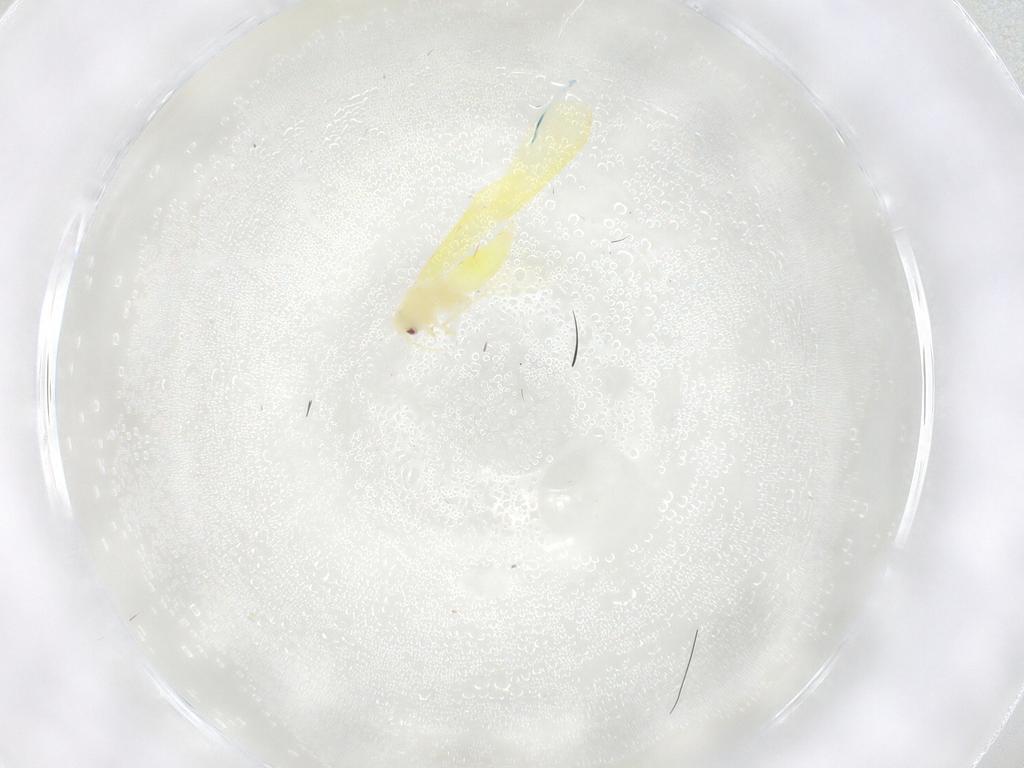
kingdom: Animalia
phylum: Arthropoda
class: Insecta
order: Hemiptera
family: Aleyrodidae
